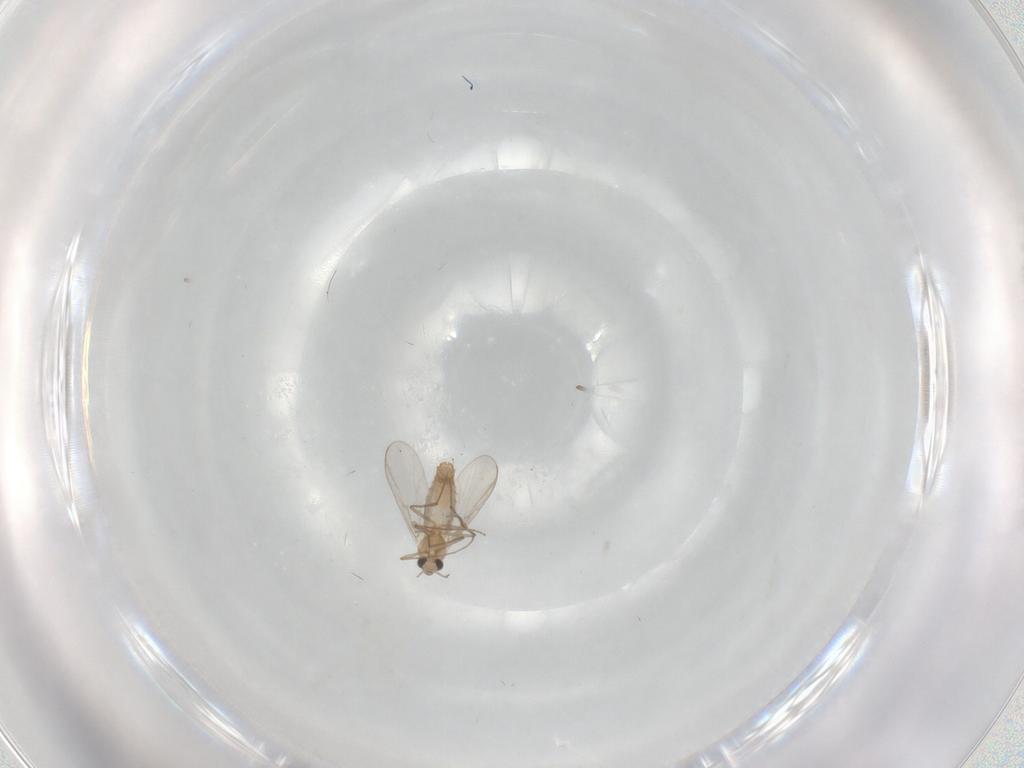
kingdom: Animalia
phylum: Arthropoda
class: Insecta
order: Diptera
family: Chironomidae
